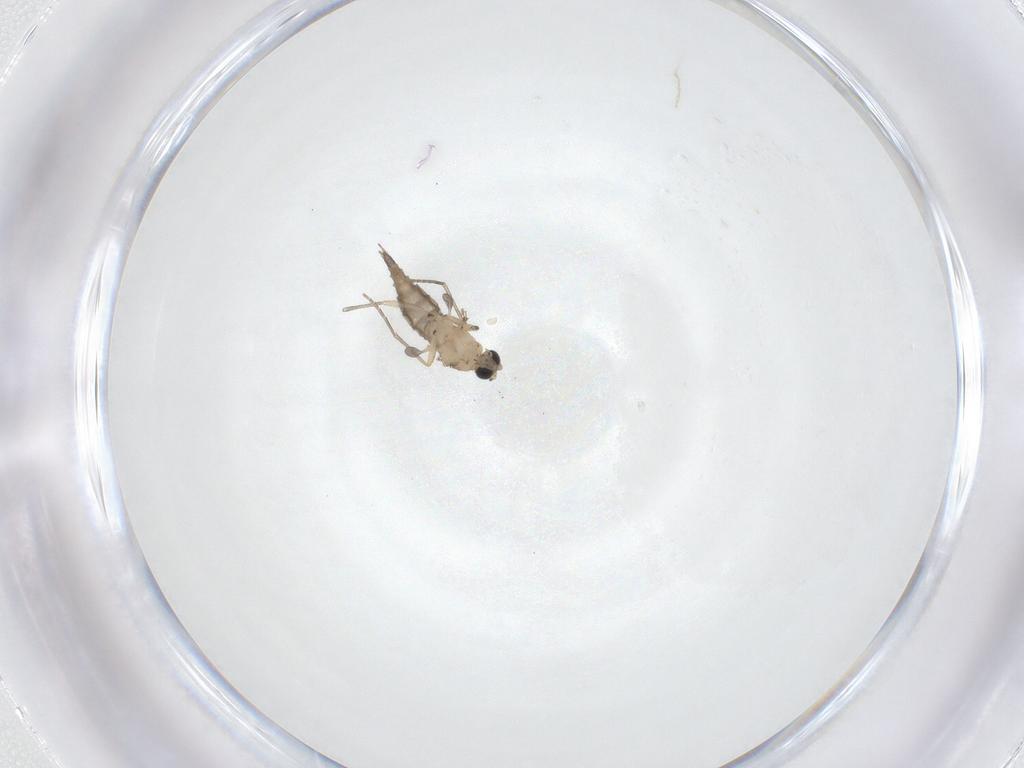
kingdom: Animalia
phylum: Arthropoda
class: Insecta
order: Diptera
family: Sciaridae
